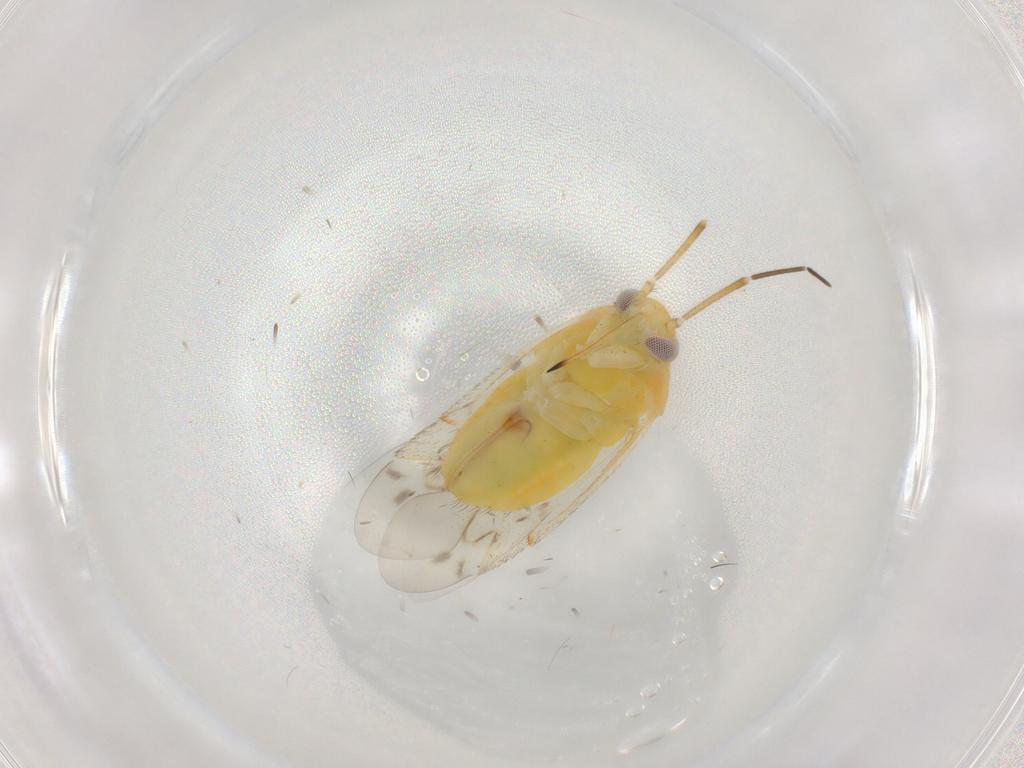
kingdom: Animalia
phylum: Arthropoda
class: Insecta
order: Hemiptera
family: Miridae
